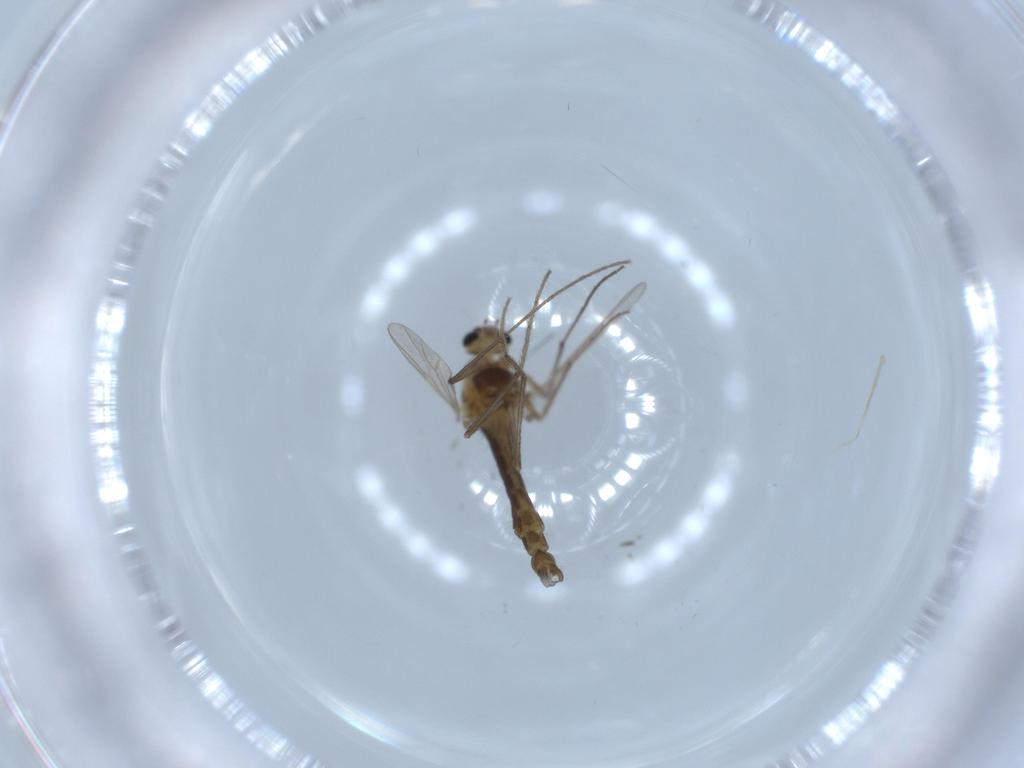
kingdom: Animalia
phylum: Arthropoda
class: Insecta
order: Diptera
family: Chironomidae
